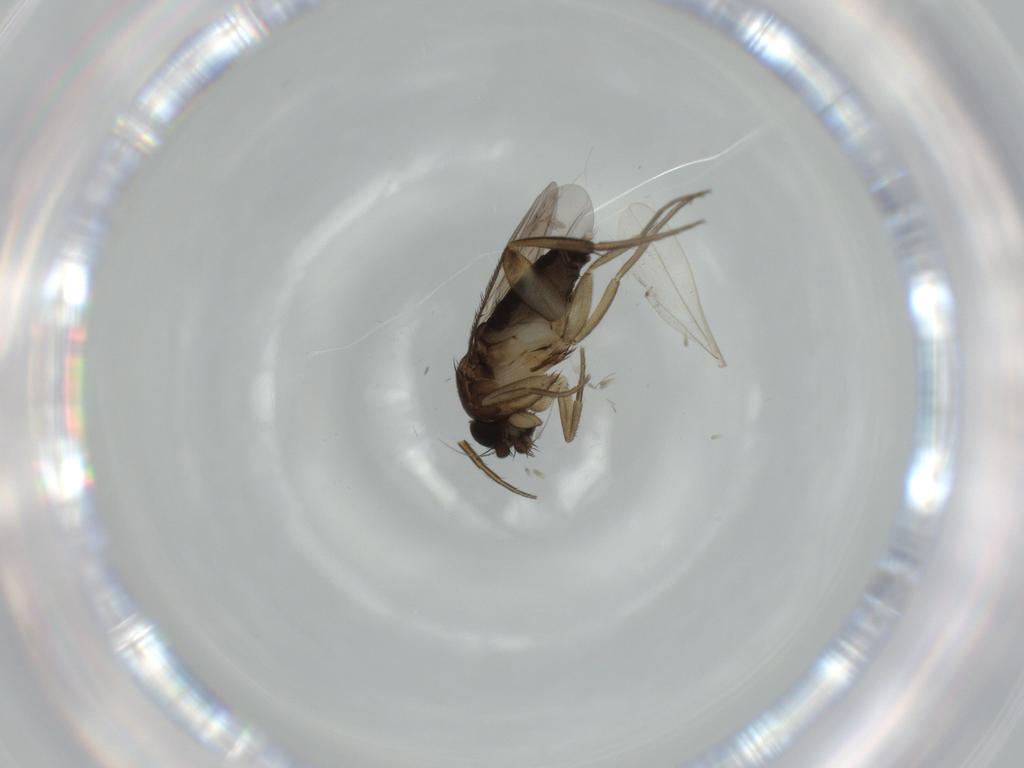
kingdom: Animalia
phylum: Arthropoda
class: Insecta
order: Diptera
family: Phoridae
